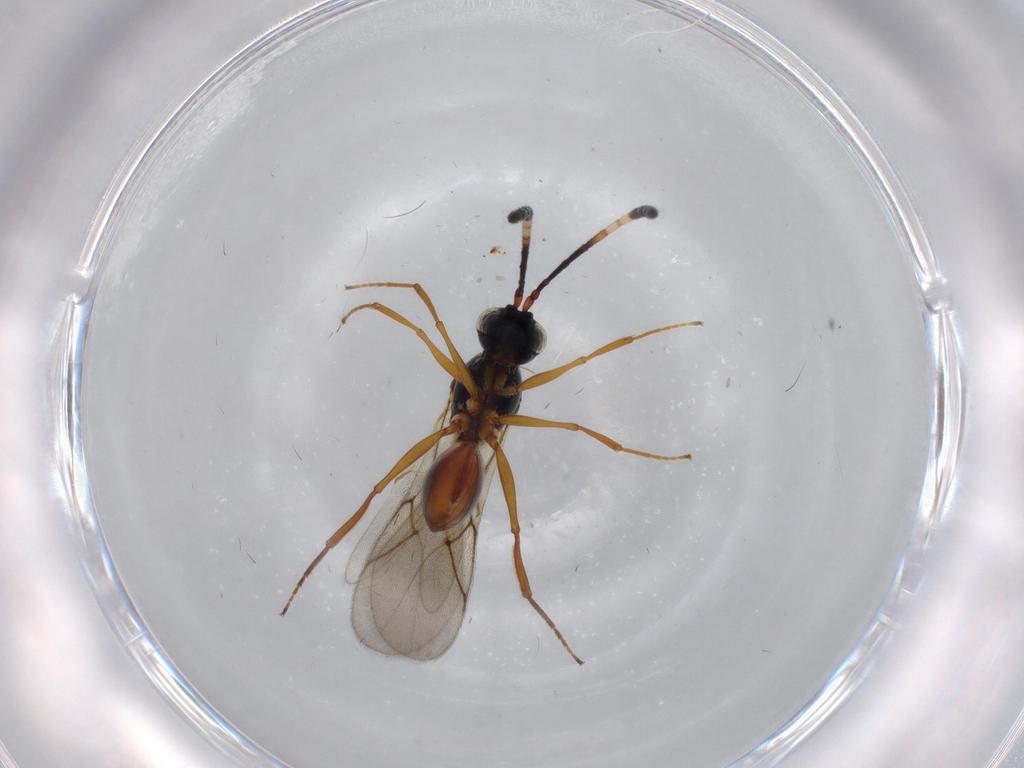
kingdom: Animalia
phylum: Arthropoda
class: Insecta
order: Hymenoptera
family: Figitidae
